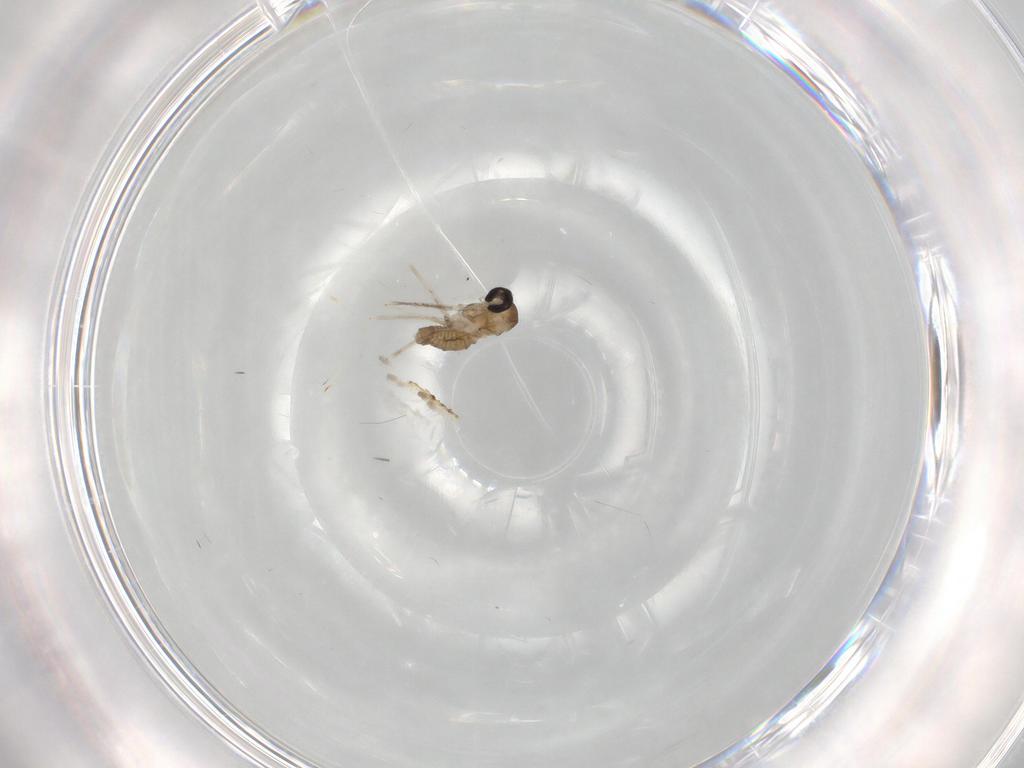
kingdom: Animalia
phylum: Arthropoda
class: Insecta
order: Diptera
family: Cecidomyiidae
